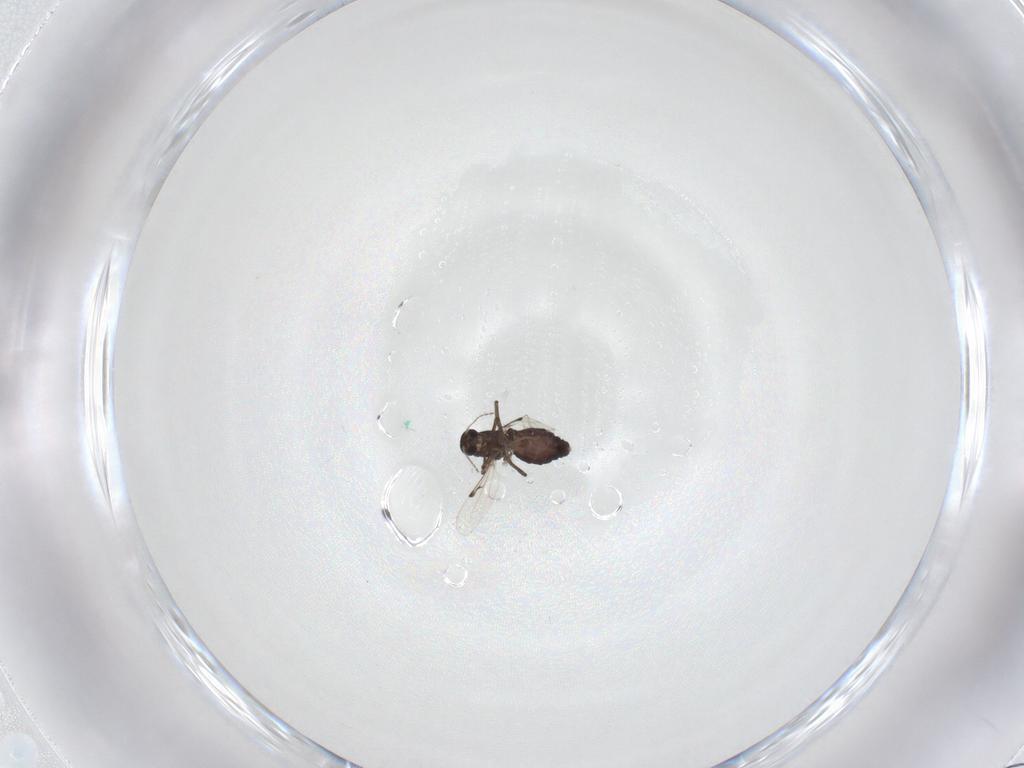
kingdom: Animalia
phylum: Arthropoda
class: Insecta
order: Diptera
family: Ceratopogonidae
